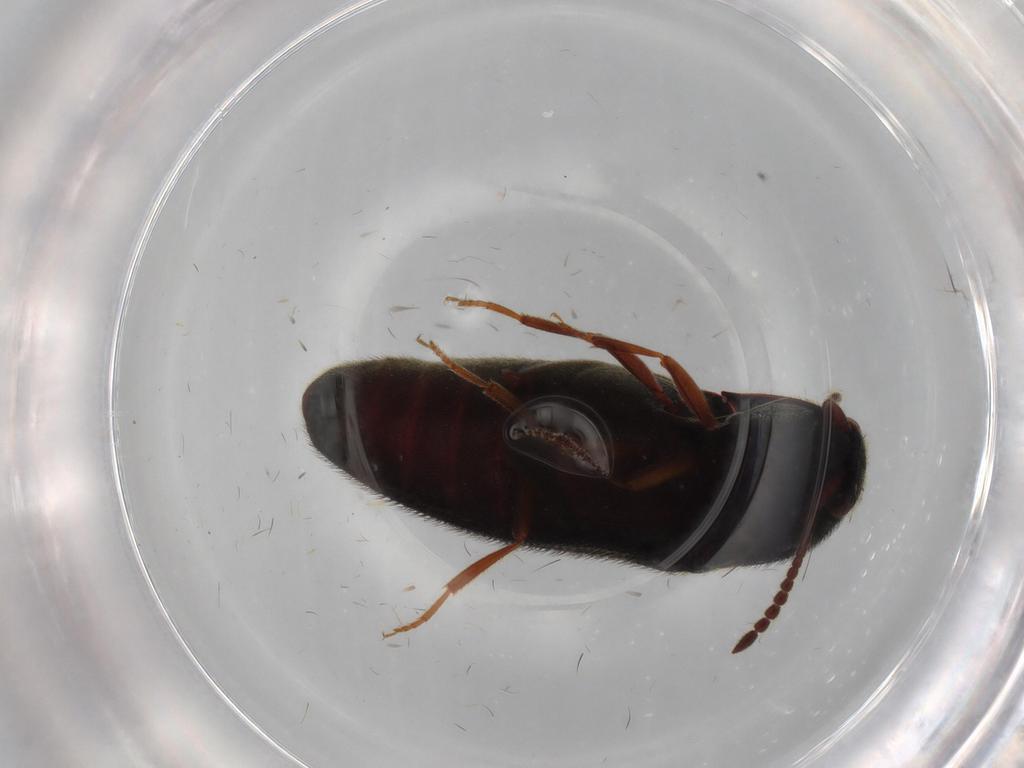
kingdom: Animalia
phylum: Arthropoda
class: Insecta
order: Coleoptera
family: Eucnemidae
